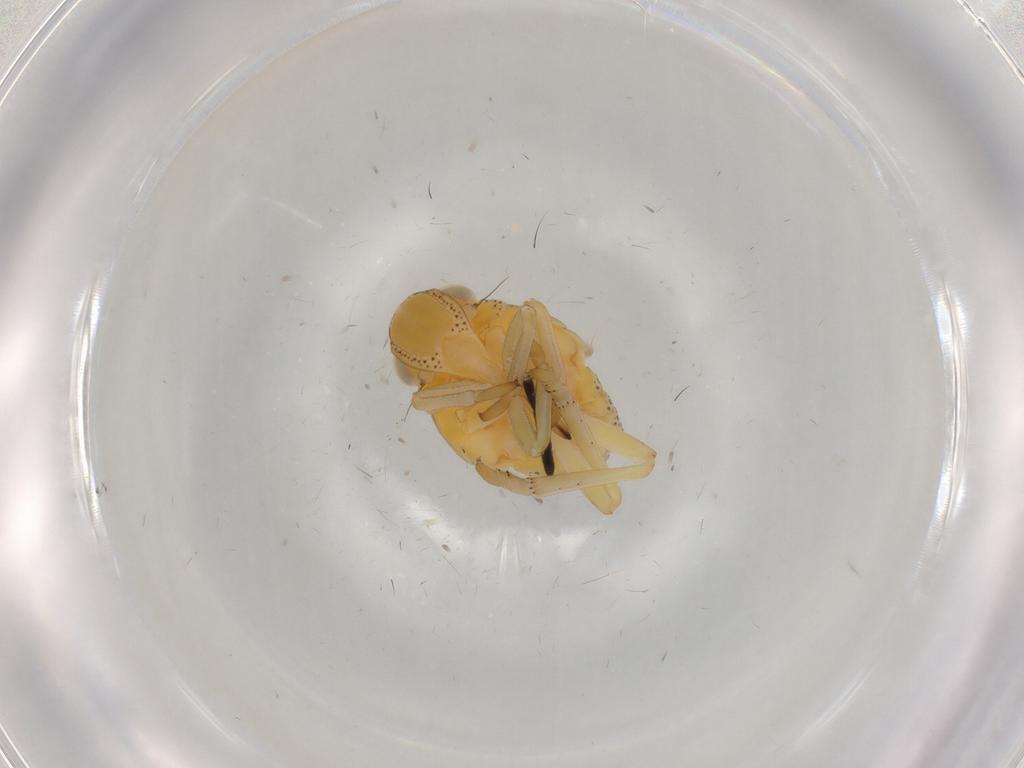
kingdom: Animalia
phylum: Arthropoda
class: Insecta
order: Hemiptera
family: Tropiduchidae
